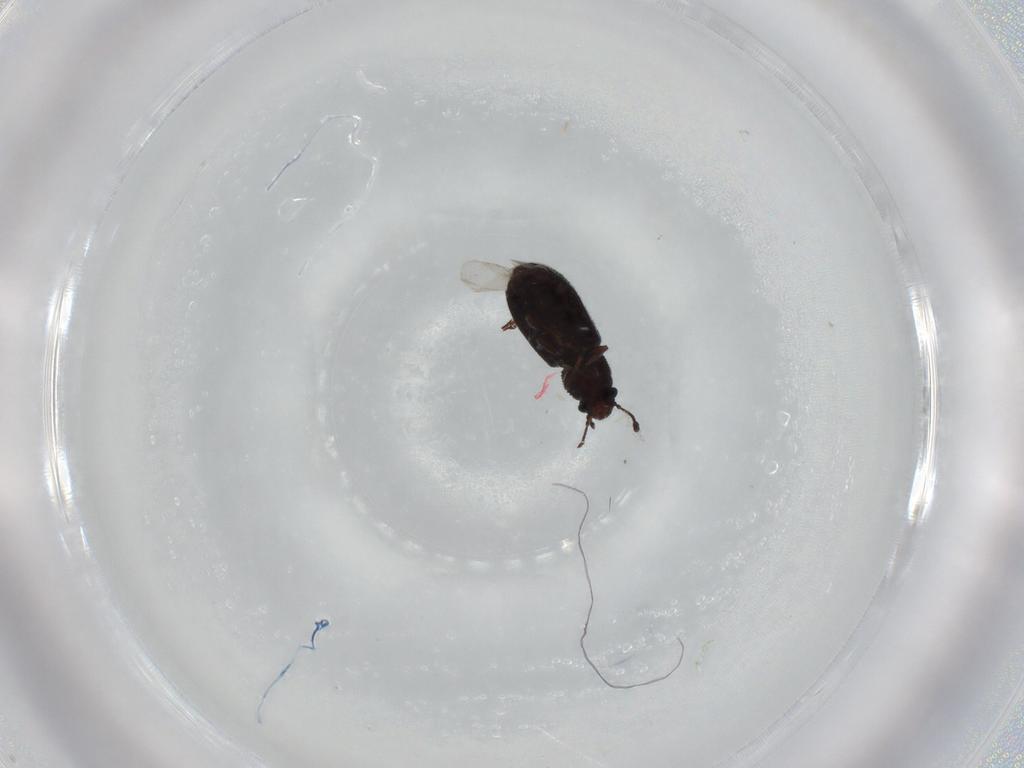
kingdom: Animalia
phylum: Arthropoda
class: Insecta
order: Coleoptera
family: Mycetophagidae
